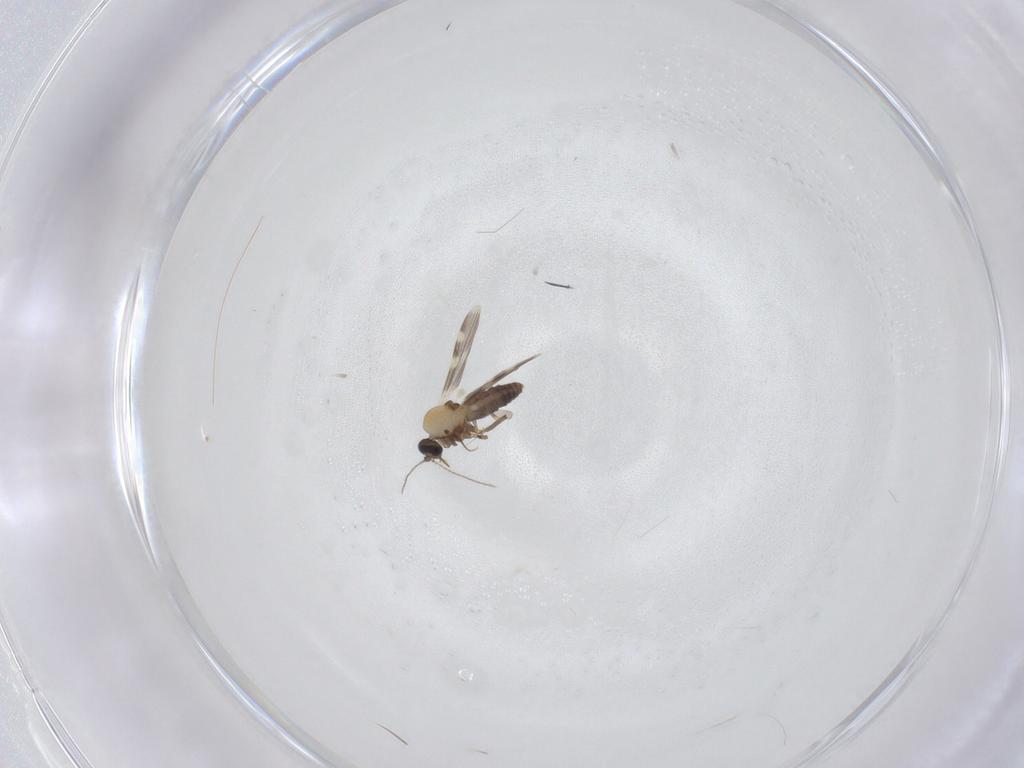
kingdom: Animalia
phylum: Arthropoda
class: Insecta
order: Diptera
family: Ceratopogonidae
